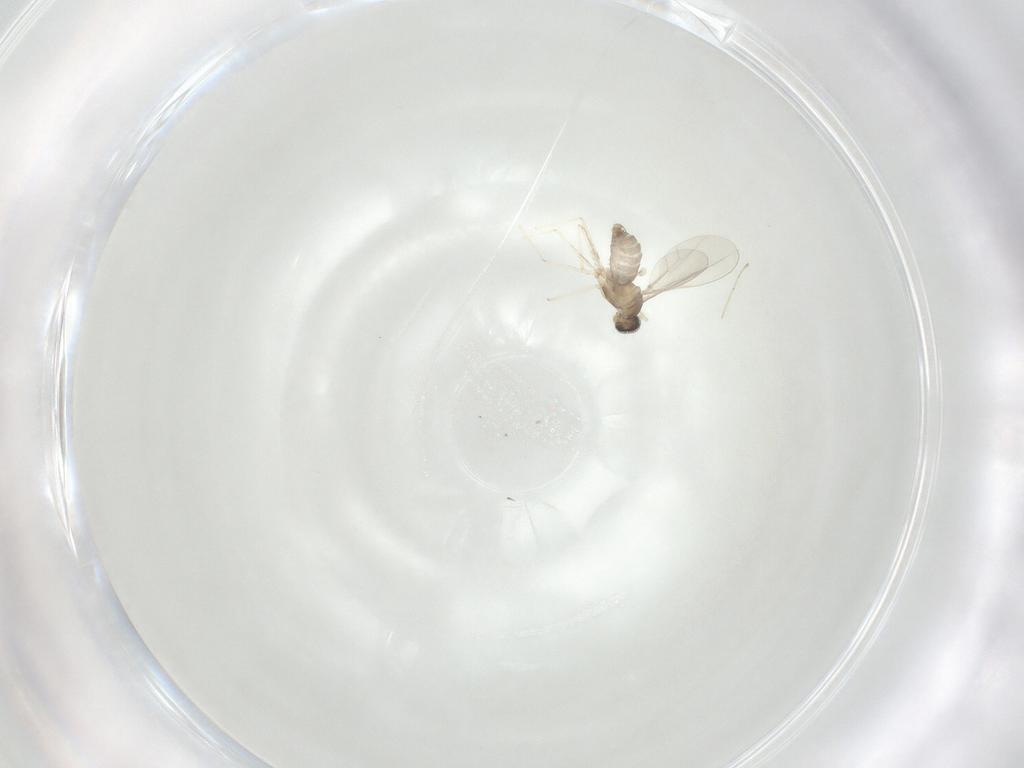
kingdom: Animalia
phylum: Arthropoda
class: Insecta
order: Diptera
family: Cecidomyiidae
